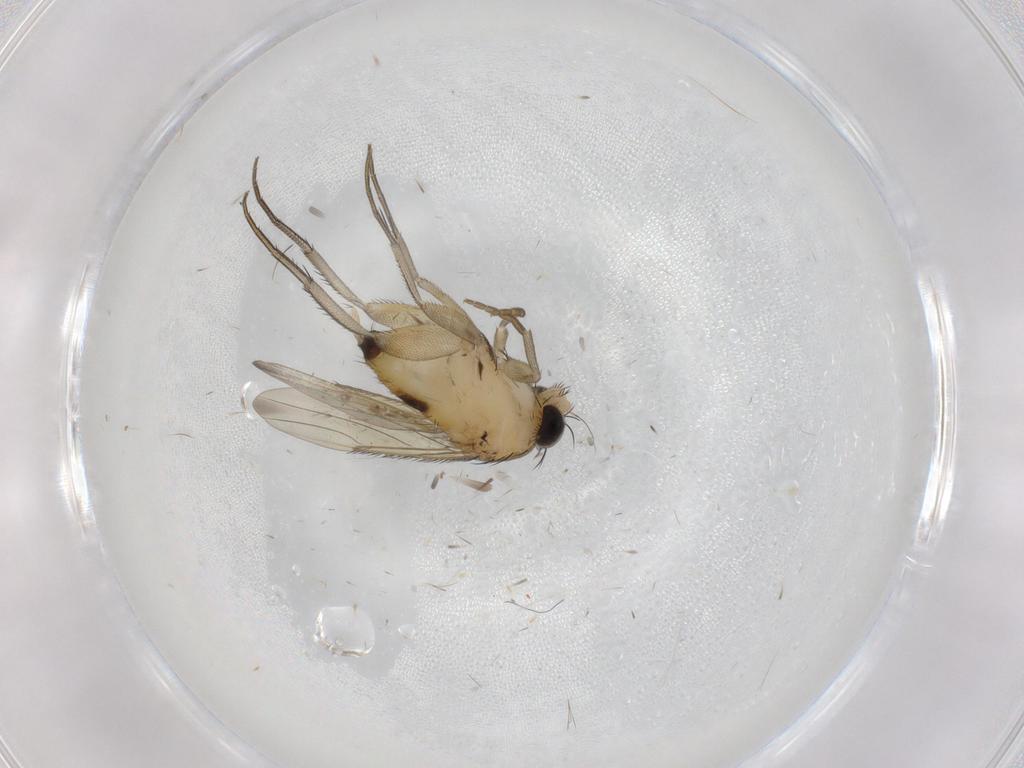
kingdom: Animalia
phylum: Arthropoda
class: Insecta
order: Diptera
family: Phoridae
